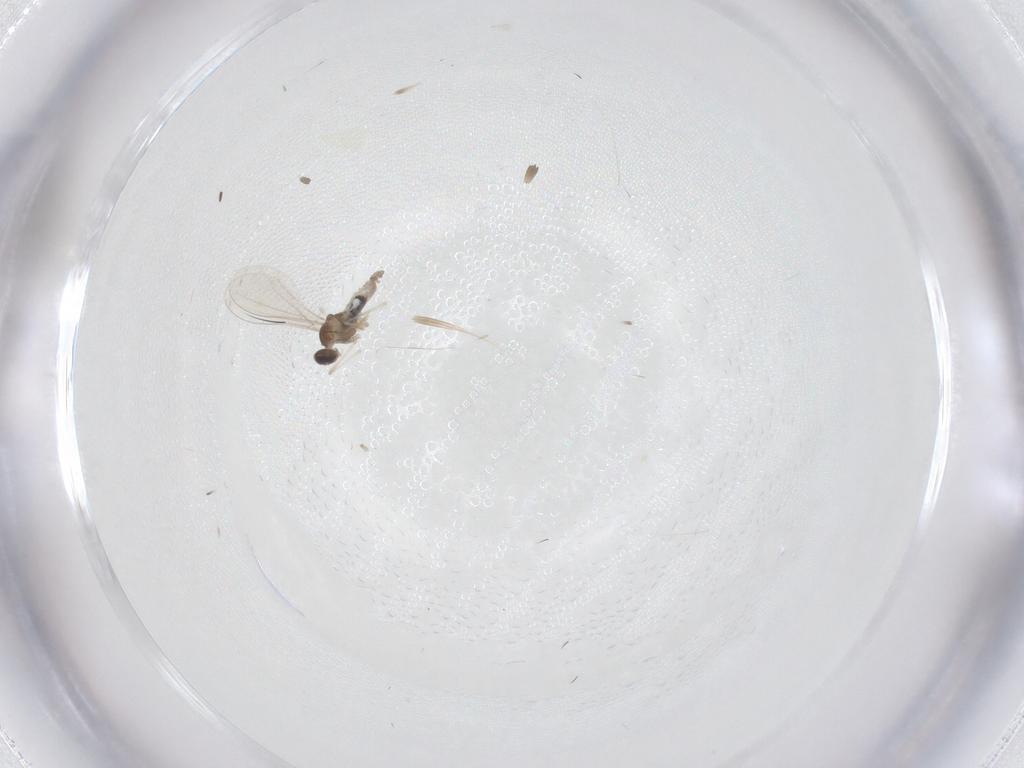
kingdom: Animalia
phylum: Arthropoda
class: Insecta
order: Diptera
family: Cecidomyiidae
